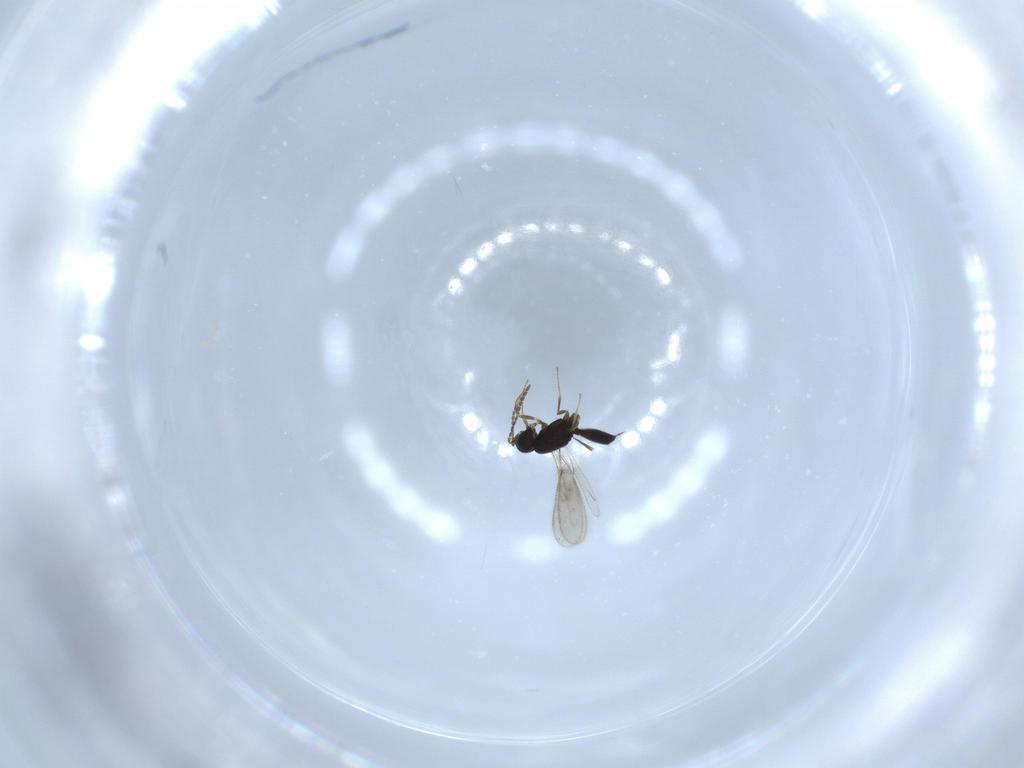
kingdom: Animalia
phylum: Arthropoda
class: Insecta
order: Hymenoptera
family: Scelionidae
